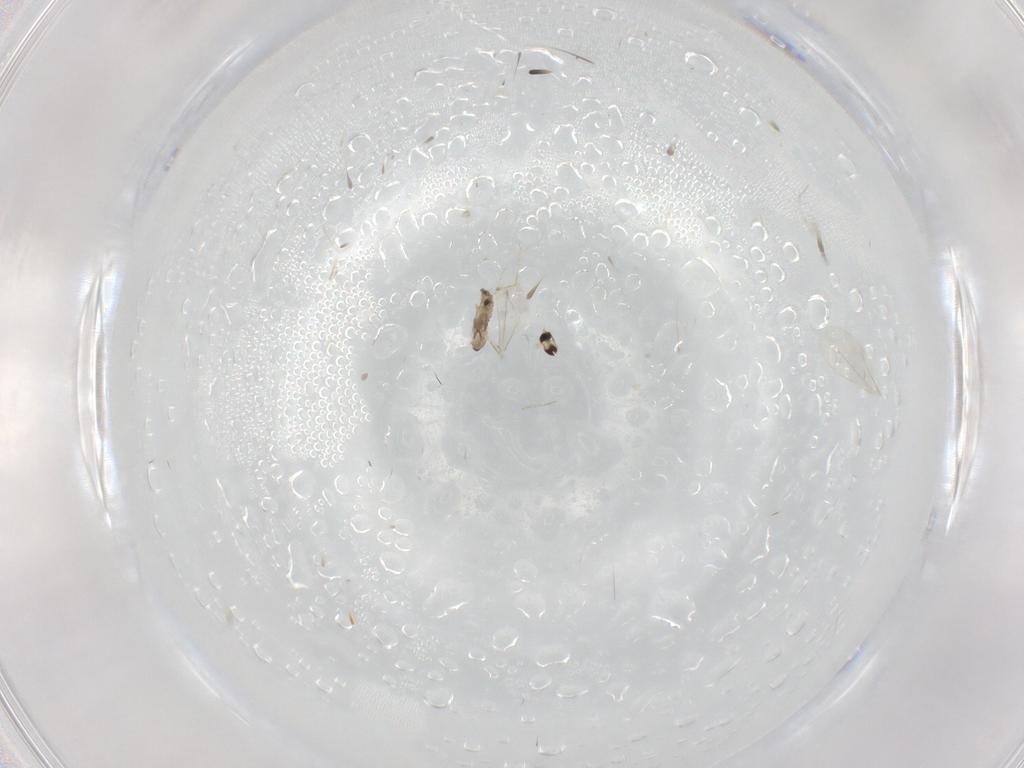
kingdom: Animalia
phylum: Arthropoda
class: Insecta
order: Diptera
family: Cecidomyiidae
